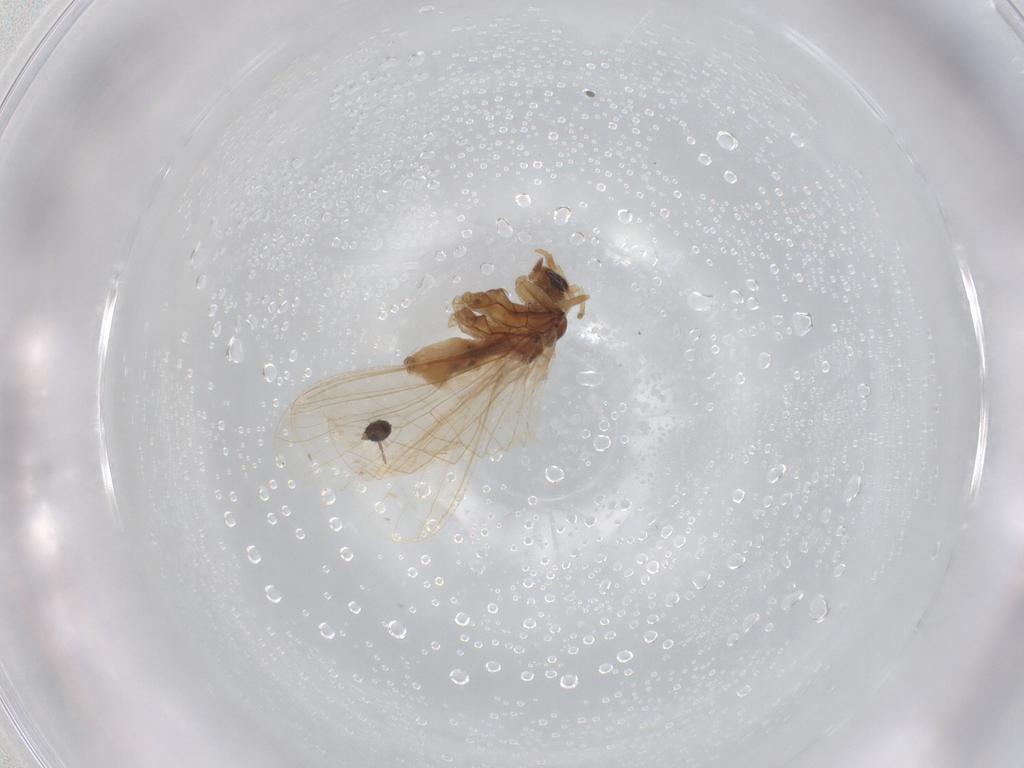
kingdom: Animalia
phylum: Arthropoda
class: Insecta
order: Neuroptera
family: Coniopterygidae
